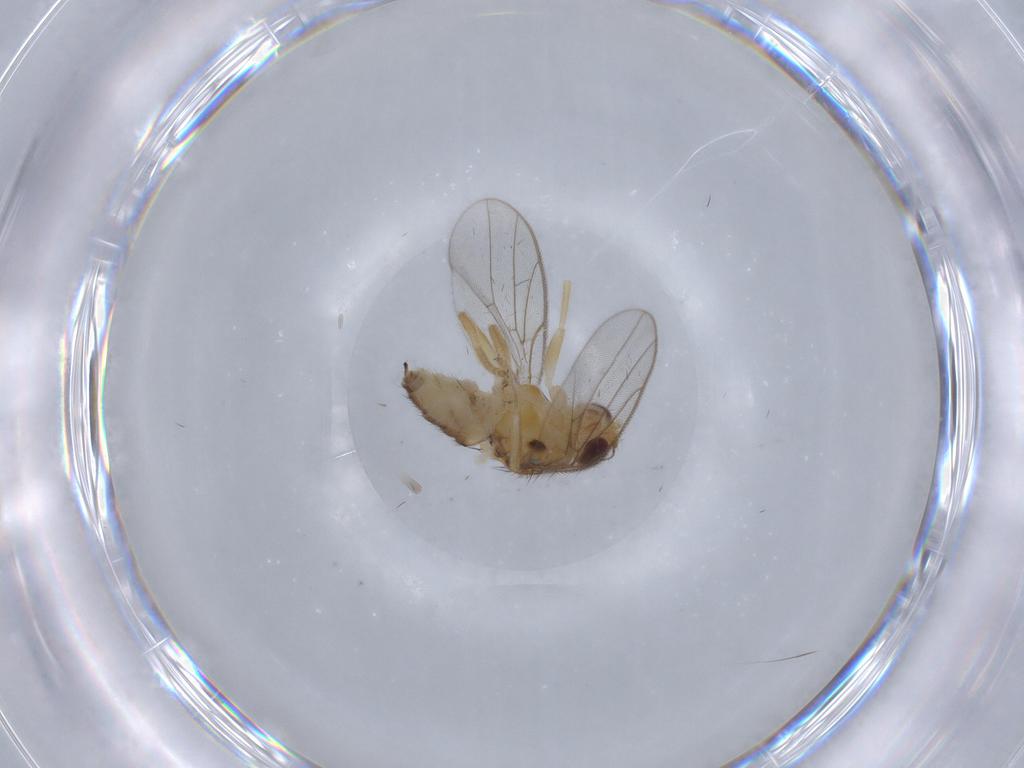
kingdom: Animalia
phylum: Arthropoda
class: Insecta
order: Diptera
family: Chloropidae
